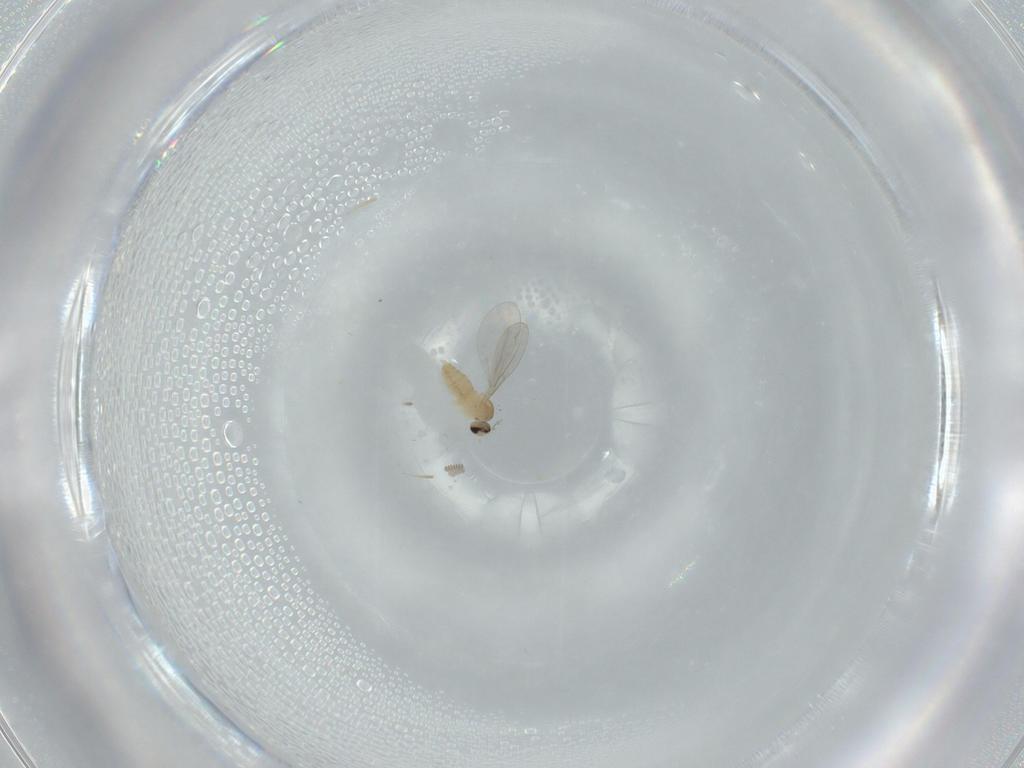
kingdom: Animalia
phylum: Arthropoda
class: Insecta
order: Diptera
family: Cecidomyiidae
